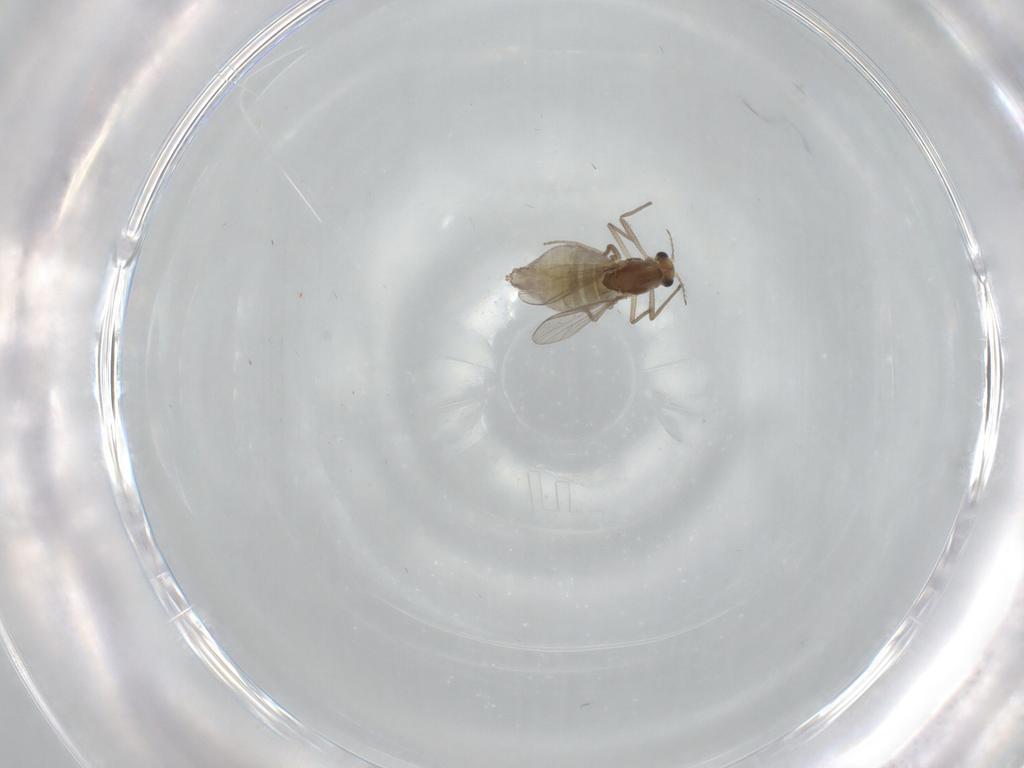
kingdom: Animalia
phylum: Arthropoda
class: Insecta
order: Diptera
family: Chironomidae
